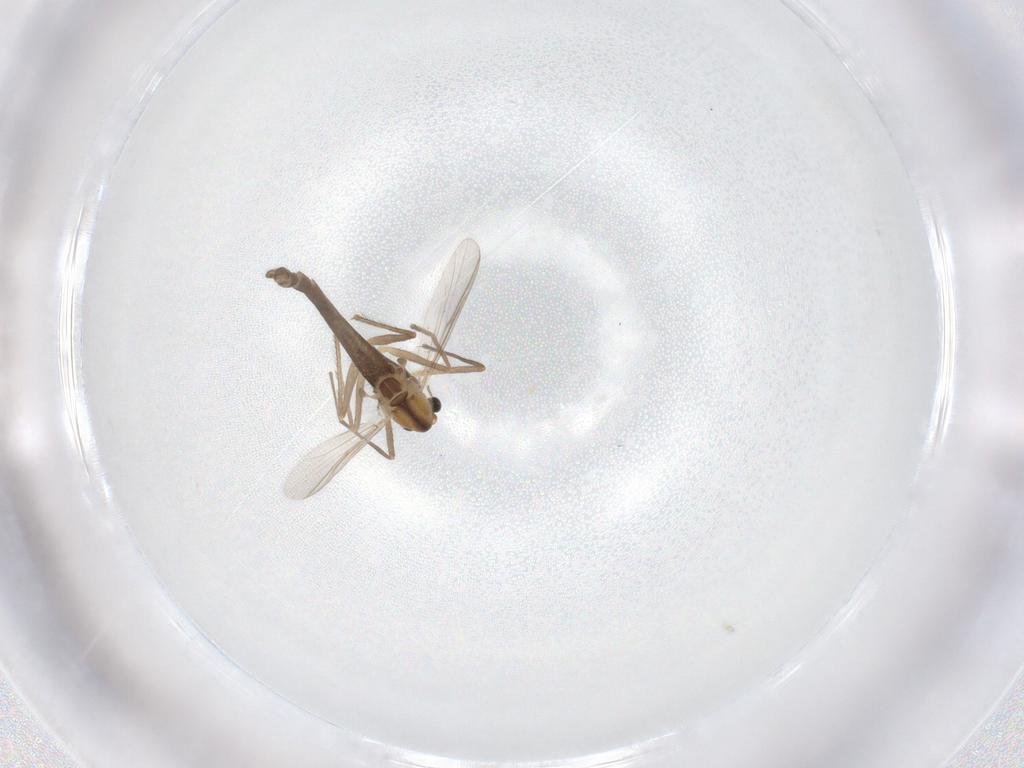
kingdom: Animalia
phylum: Arthropoda
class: Insecta
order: Diptera
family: Chironomidae
